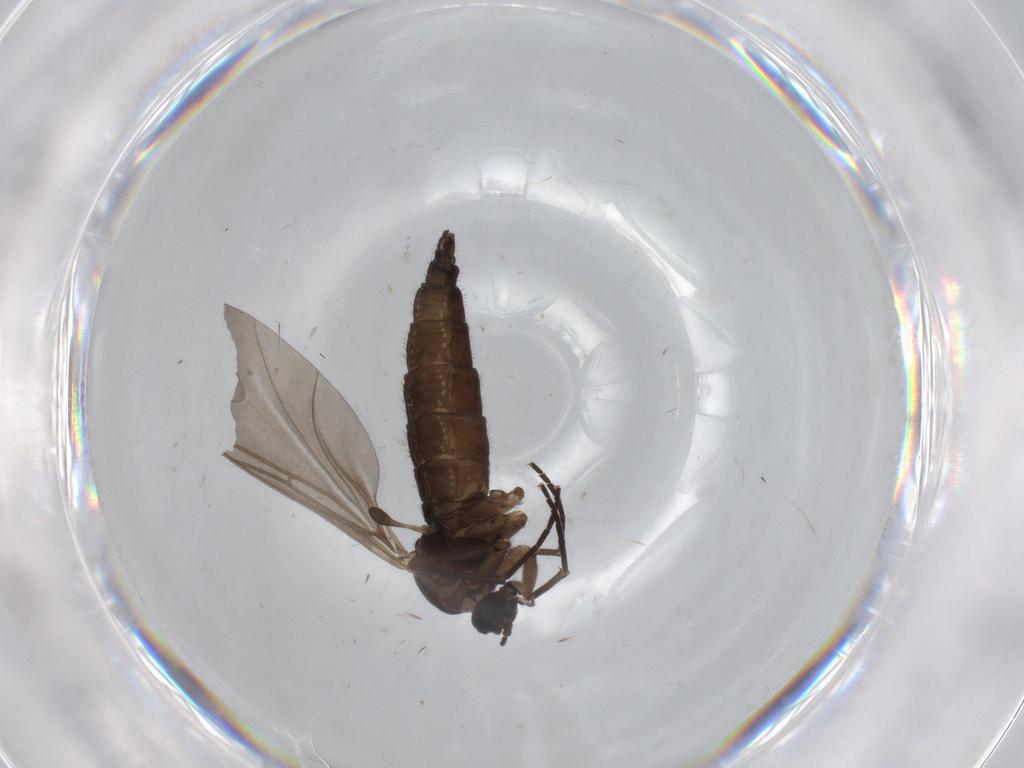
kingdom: Animalia
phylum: Arthropoda
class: Insecta
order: Diptera
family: Sciaridae
